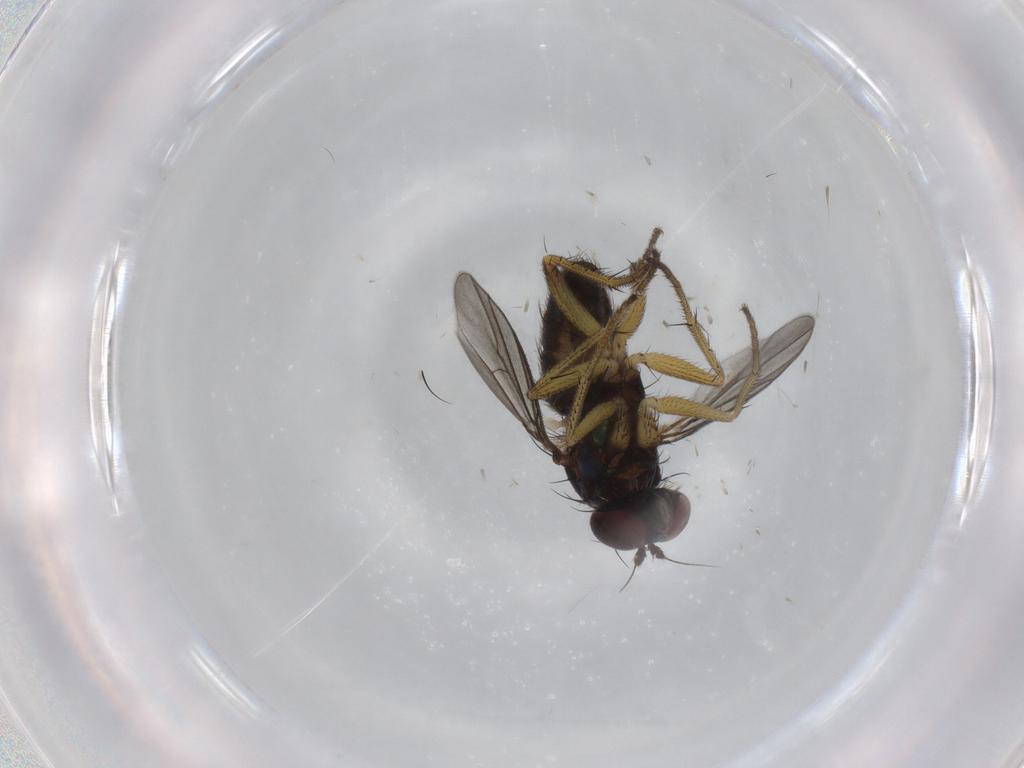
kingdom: Animalia
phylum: Arthropoda
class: Insecta
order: Diptera
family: Dolichopodidae
